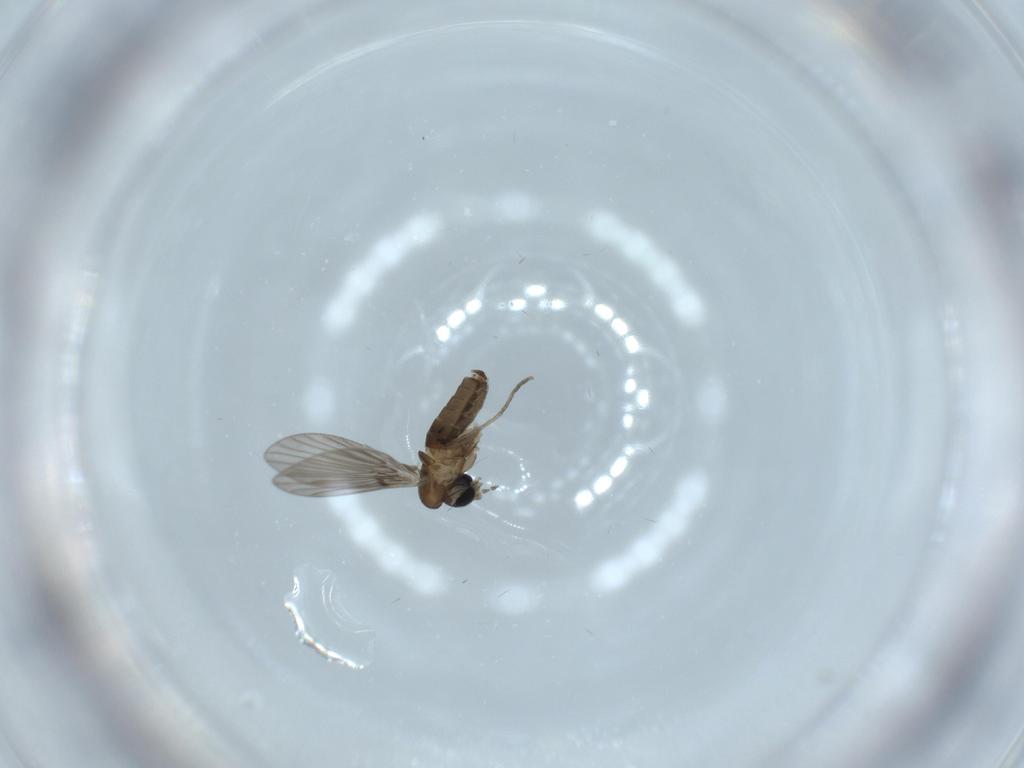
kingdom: Animalia
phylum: Arthropoda
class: Insecta
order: Diptera
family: Psychodidae
